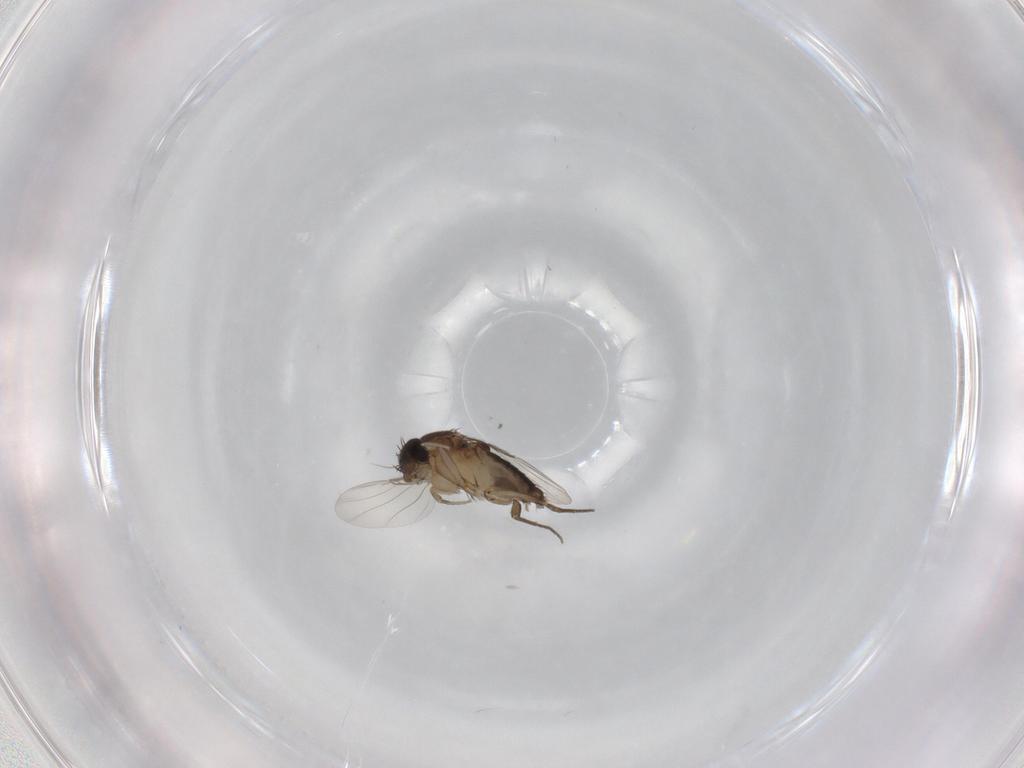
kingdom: Animalia
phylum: Arthropoda
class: Insecta
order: Diptera
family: Phoridae
